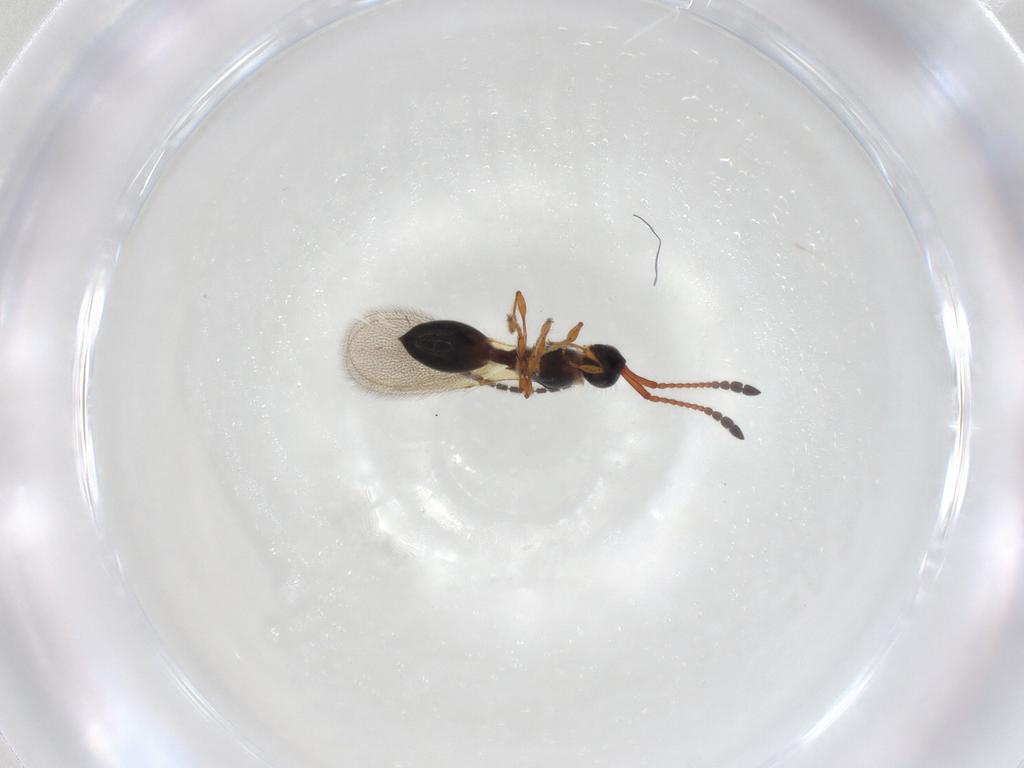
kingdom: Animalia
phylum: Arthropoda
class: Insecta
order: Hymenoptera
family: Diapriidae
